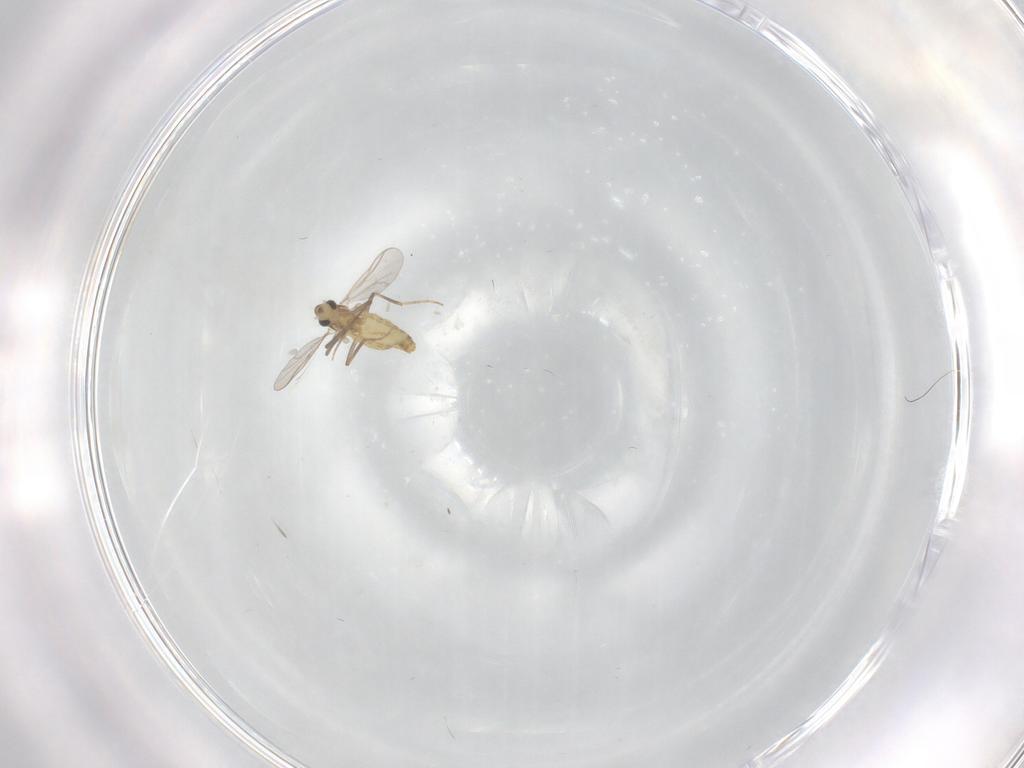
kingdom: Animalia
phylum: Arthropoda
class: Insecta
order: Diptera
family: Chironomidae
